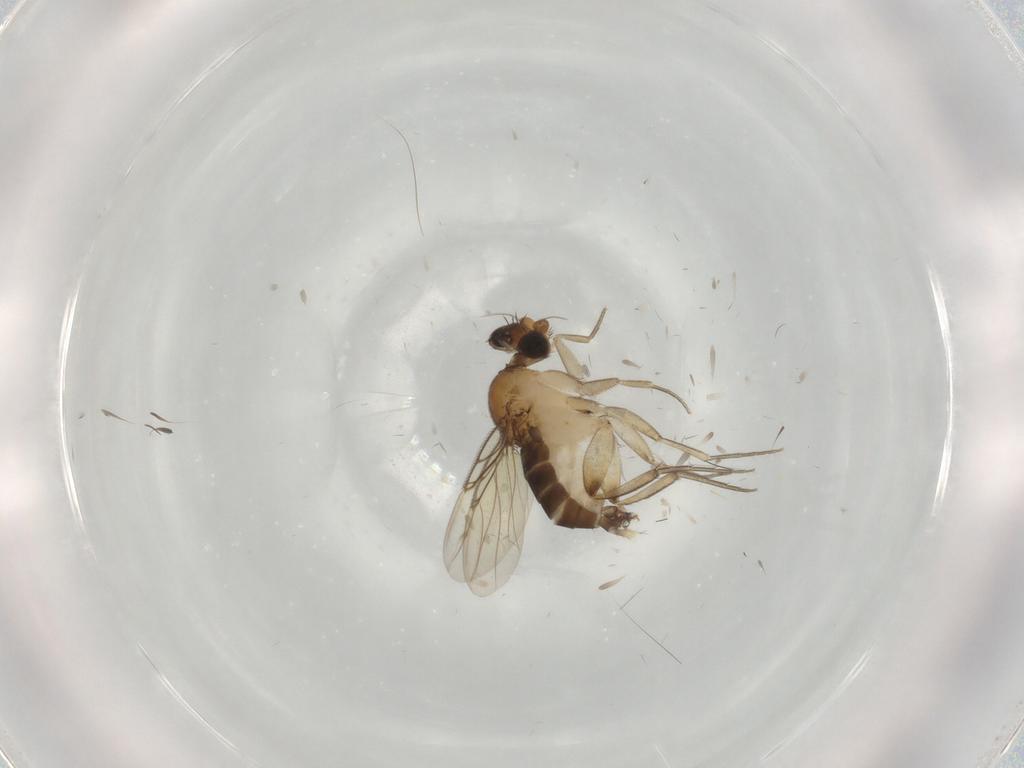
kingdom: Animalia
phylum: Arthropoda
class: Insecta
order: Diptera
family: Phoridae
